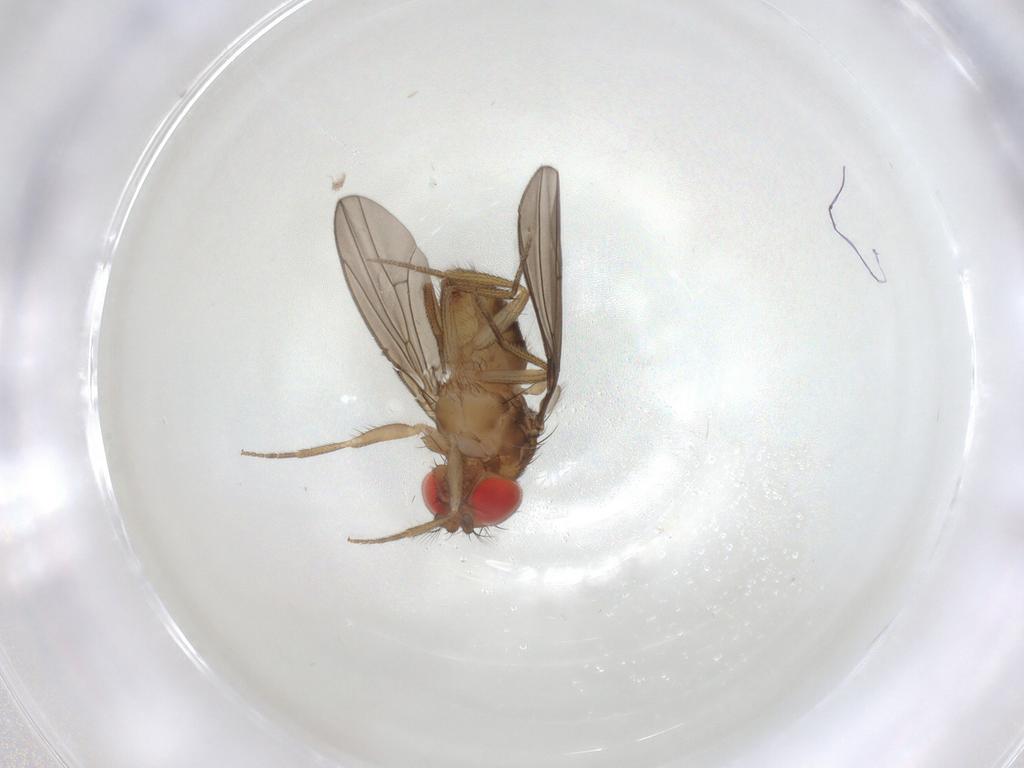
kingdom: Animalia
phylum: Arthropoda
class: Insecta
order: Diptera
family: Drosophilidae
